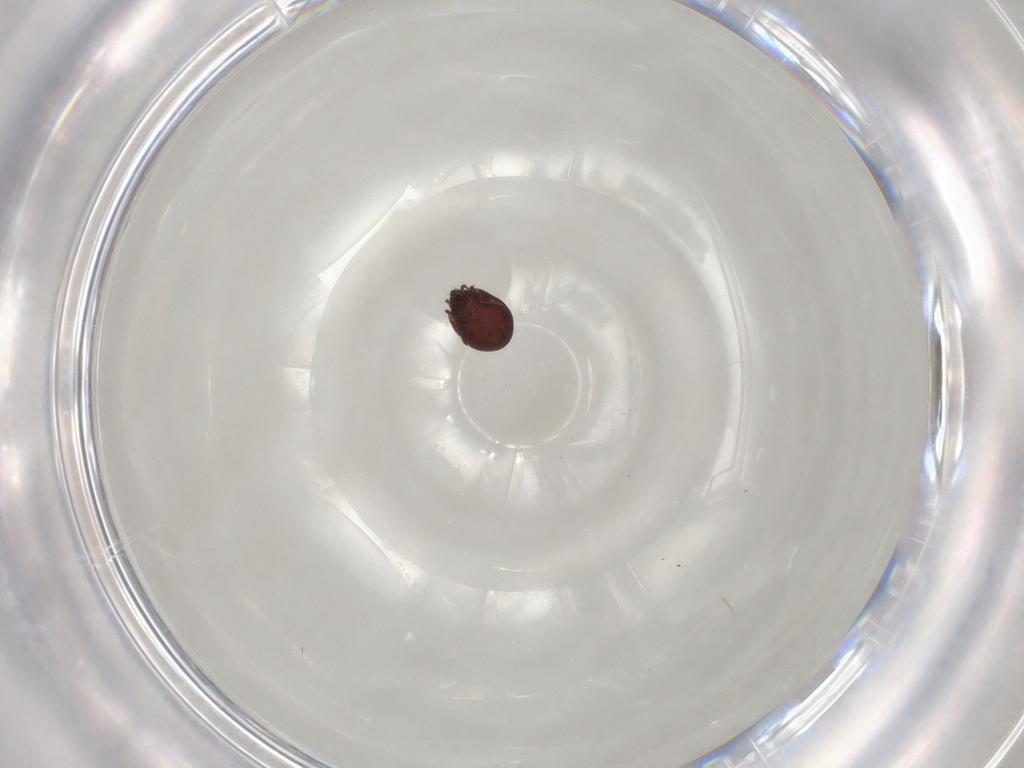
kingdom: Animalia
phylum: Arthropoda
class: Arachnida
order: Sarcoptiformes
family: Humerobatidae
